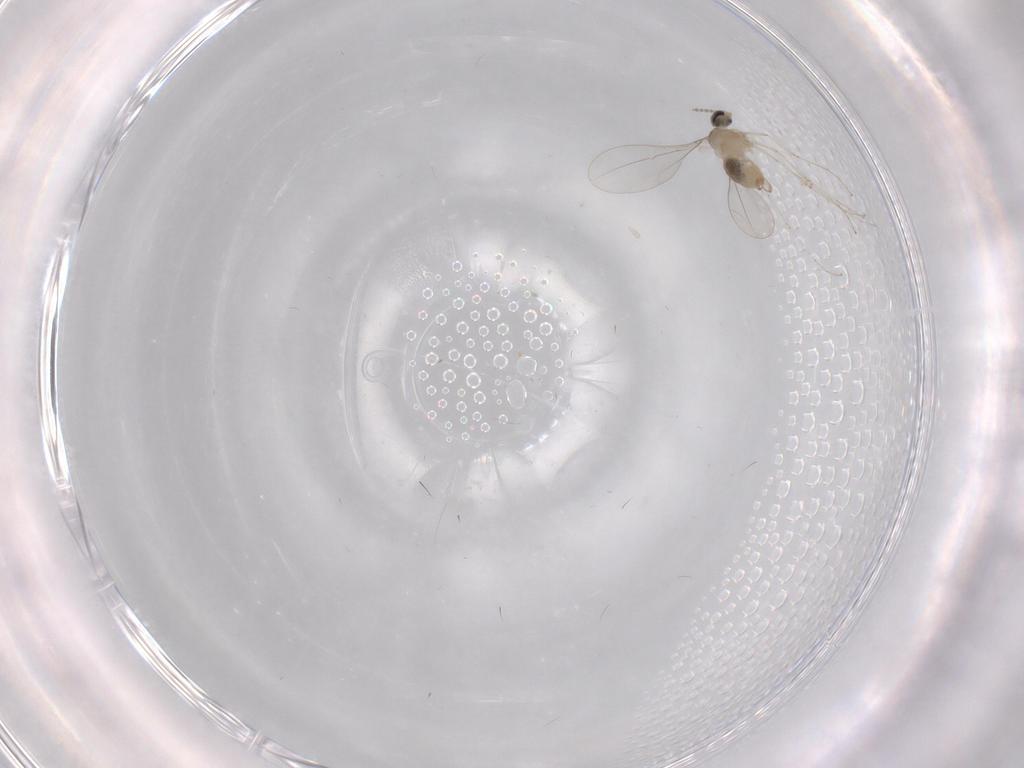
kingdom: Animalia
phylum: Arthropoda
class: Insecta
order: Diptera
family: Cecidomyiidae
